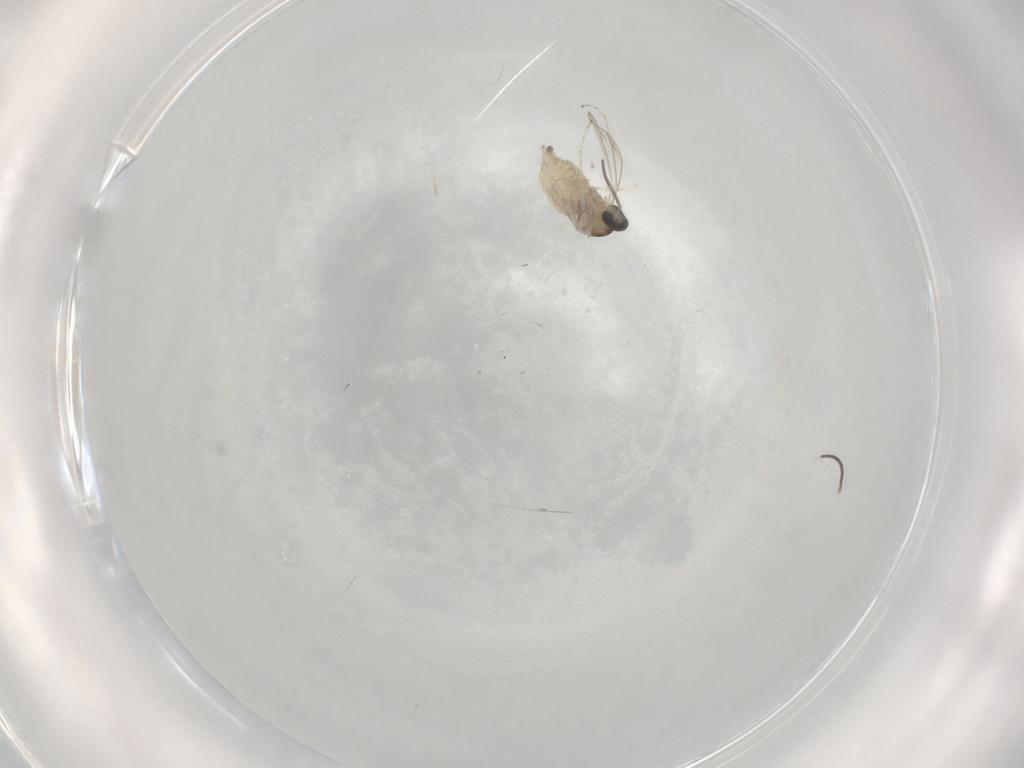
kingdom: Animalia
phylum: Arthropoda
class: Insecta
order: Diptera
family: Cecidomyiidae
